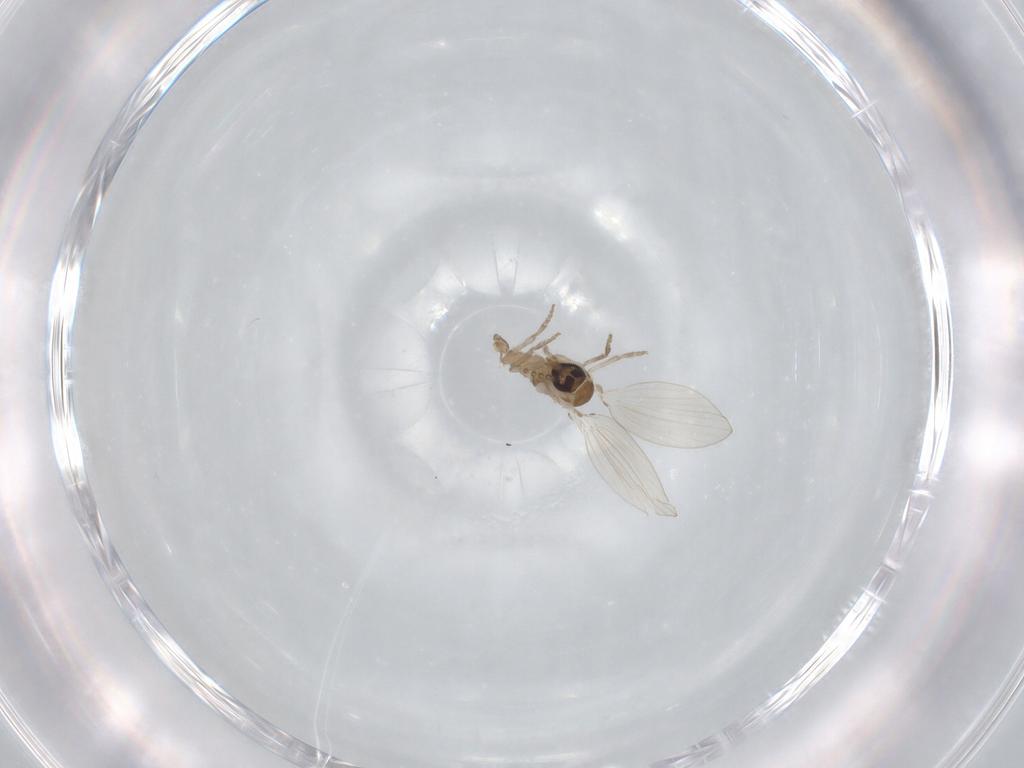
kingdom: Animalia
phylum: Arthropoda
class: Insecta
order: Diptera
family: Psychodidae
